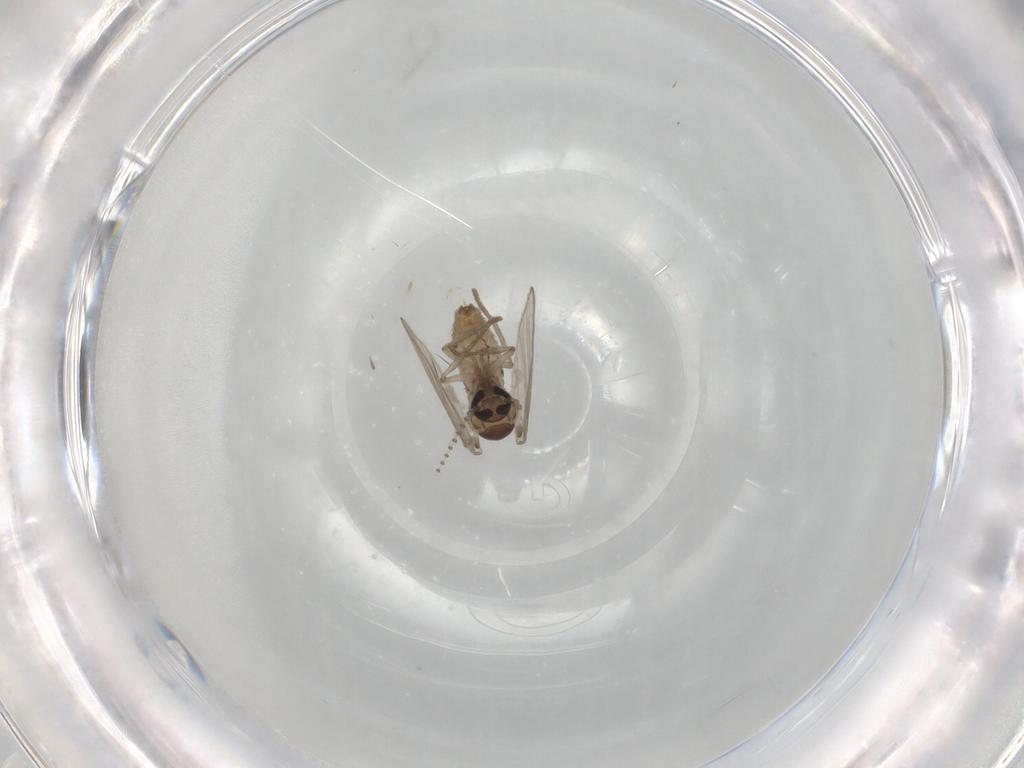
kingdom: Animalia
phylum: Arthropoda
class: Insecta
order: Diptera
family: Psychodidae
